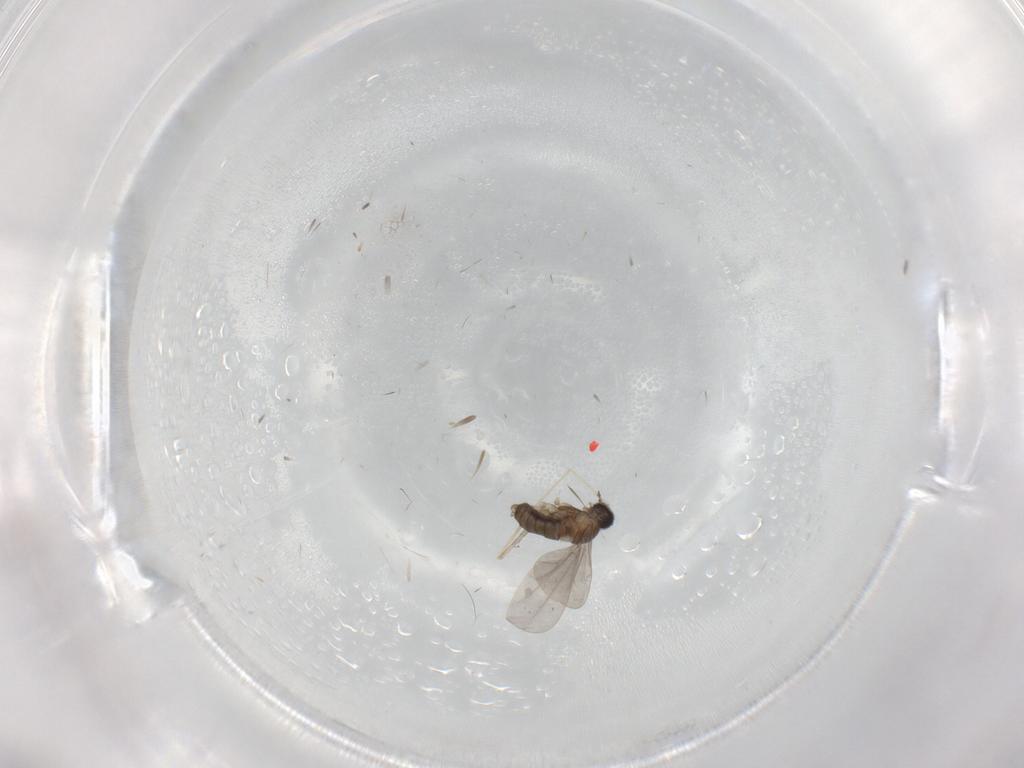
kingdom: Animalia
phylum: Arthropoda
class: Insecta
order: Diptera
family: Cecidomyiidae
